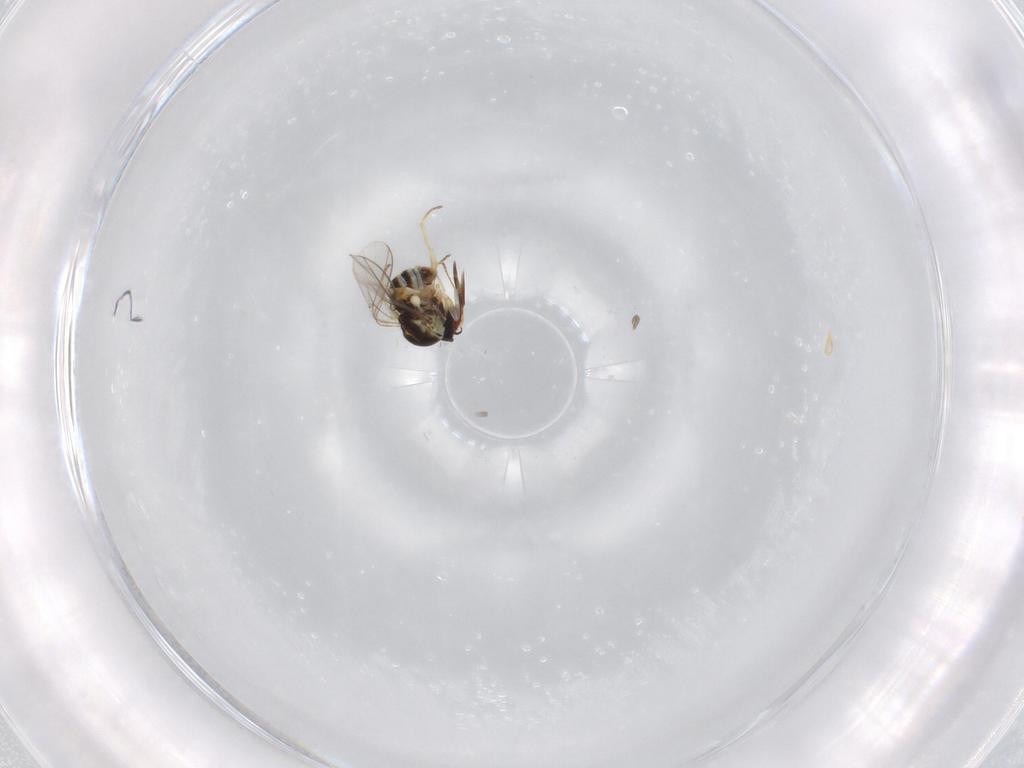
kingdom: Animalia
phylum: Arthropoda
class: Insecta
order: Diptera
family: Bombyliidae
